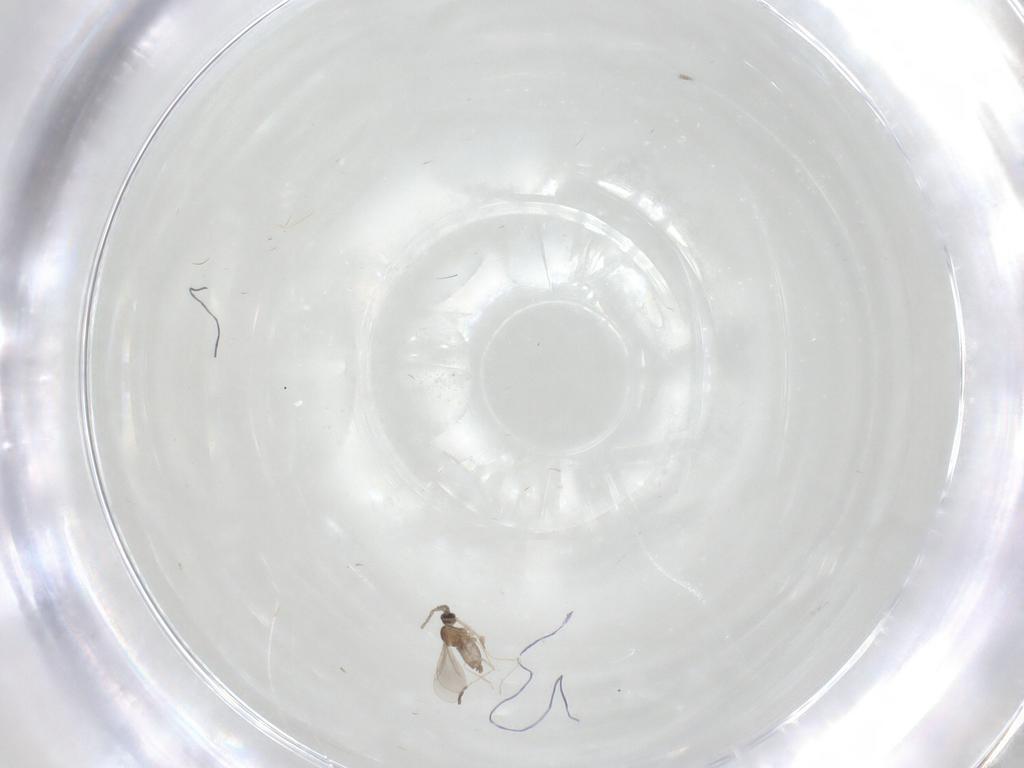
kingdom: Animalia
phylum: Arthropoda
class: Insecta
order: Diptera
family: Cecidomyiidae
